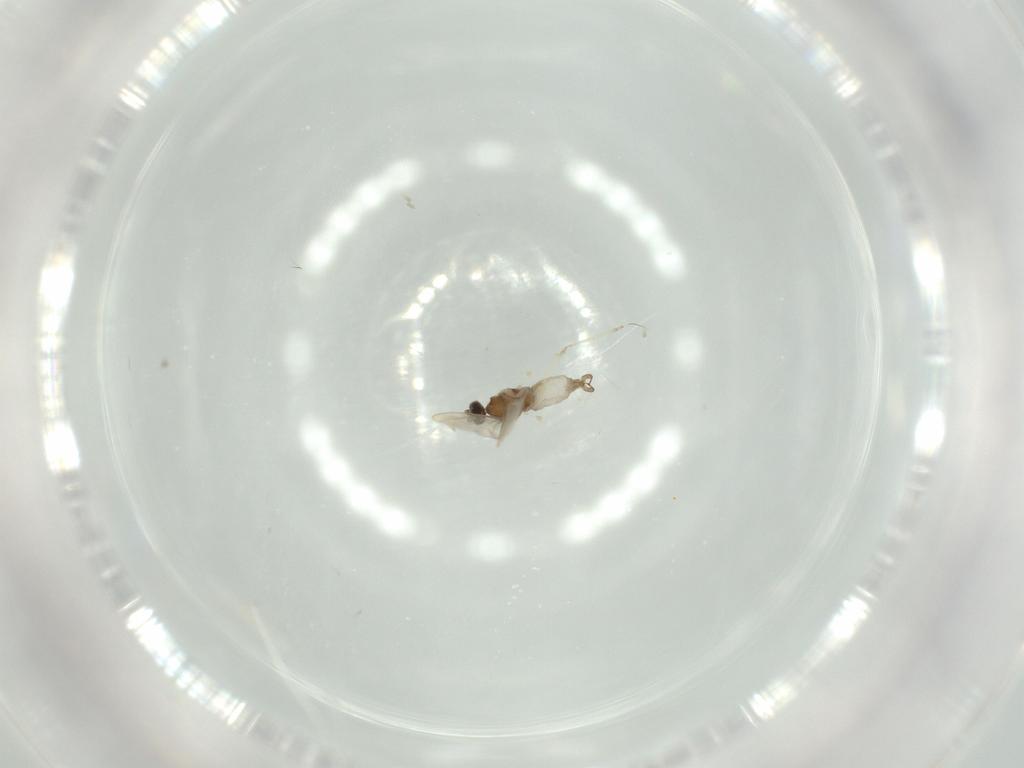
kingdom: Animalia
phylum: Arthropoda
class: Insecta
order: Diptera
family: Cecidomyiidae
